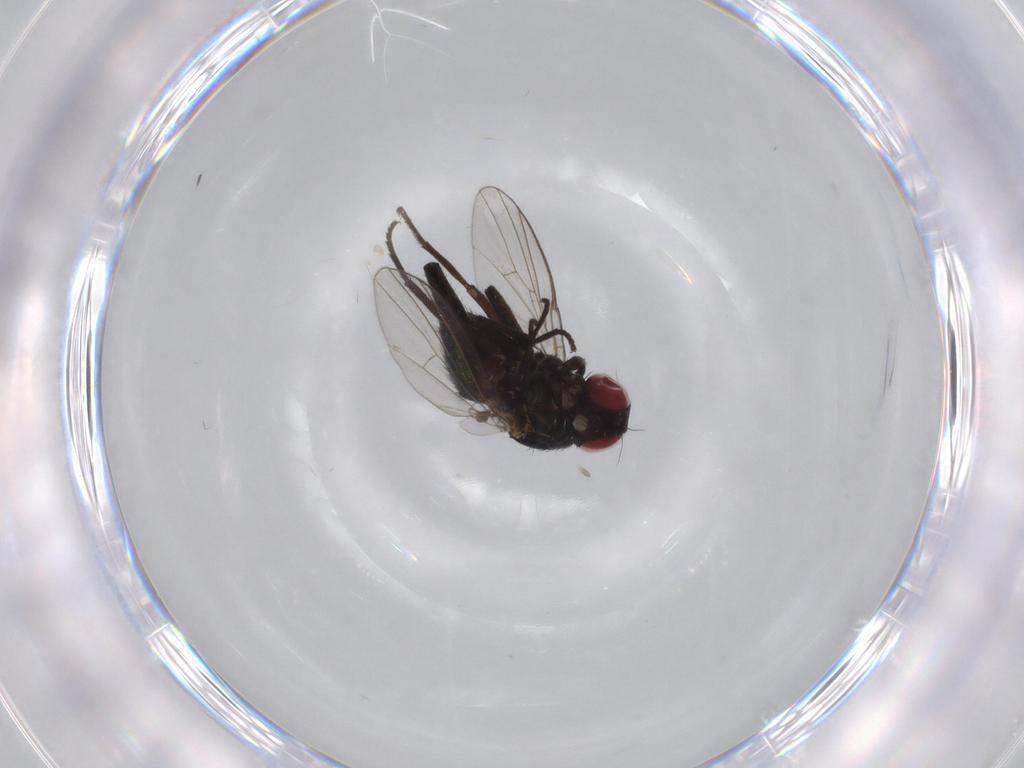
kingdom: Animalia
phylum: Arthropoda
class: Insecta
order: Diptera
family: Agromyzidae
